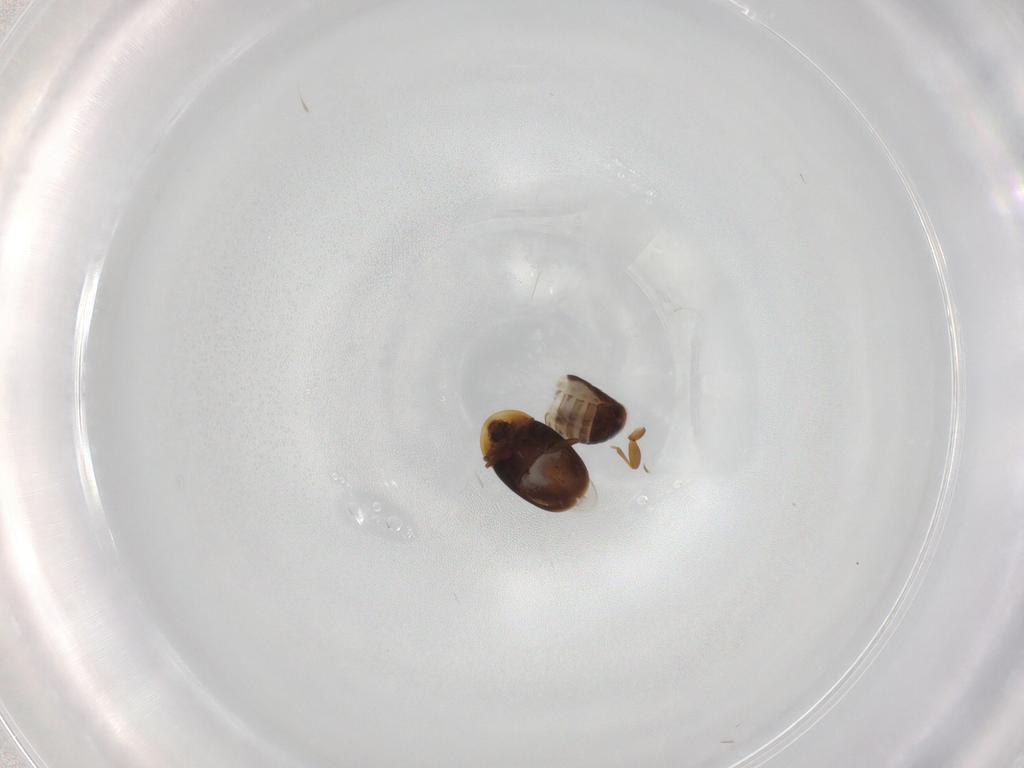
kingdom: Animalia
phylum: Arthropoda
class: Insecta
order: Coleoptera
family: Corylophidae
